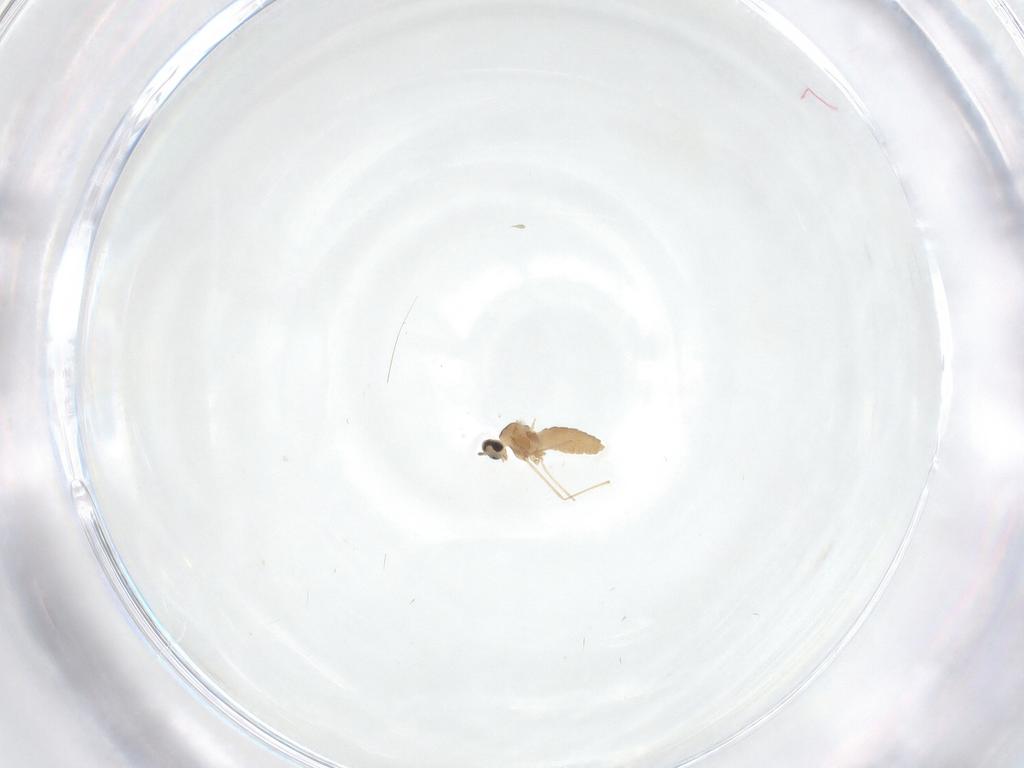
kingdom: Animalia
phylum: Arthropoda
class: Insecta
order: Diptera
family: Cecidomyiidae
